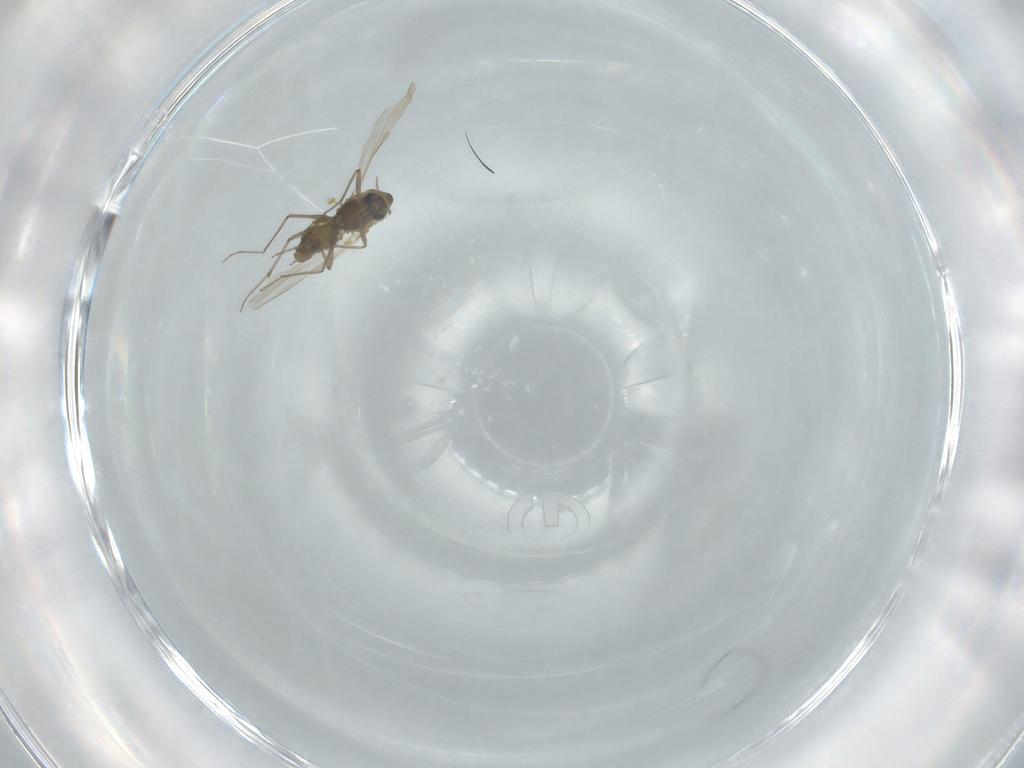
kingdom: Animalia
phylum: Arthropoda
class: Insecta
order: Diptera
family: Chironomidae
